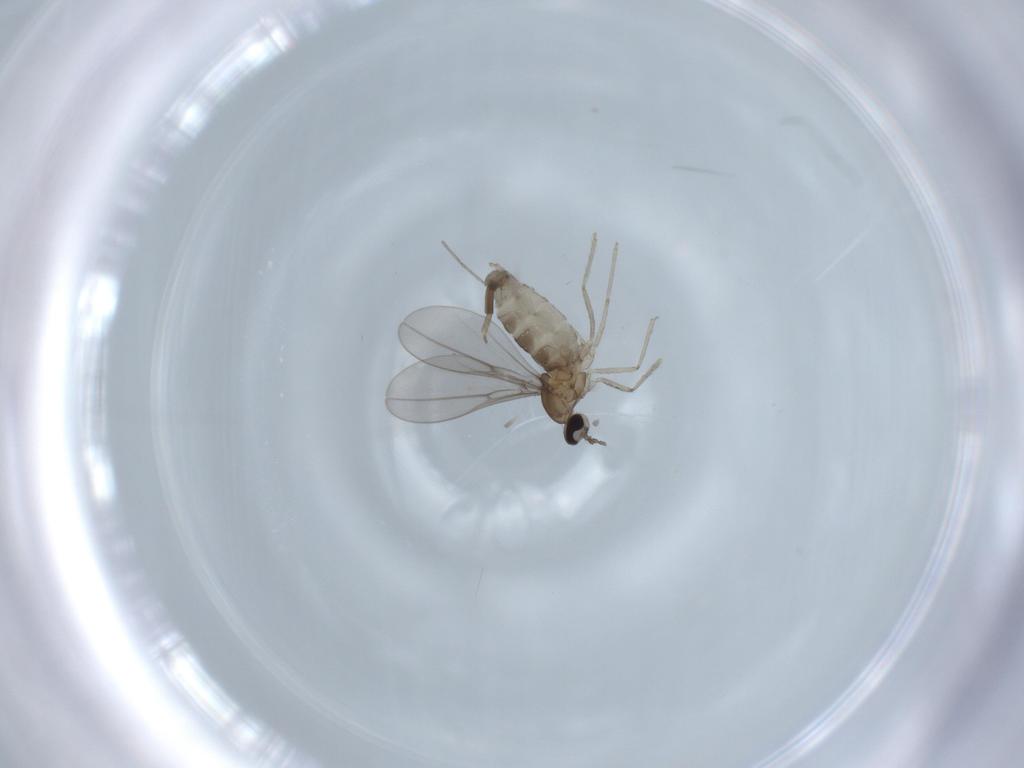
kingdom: Animalia
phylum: Arthropoda
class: Insecta
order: Diptera
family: Cecidomyiidae
